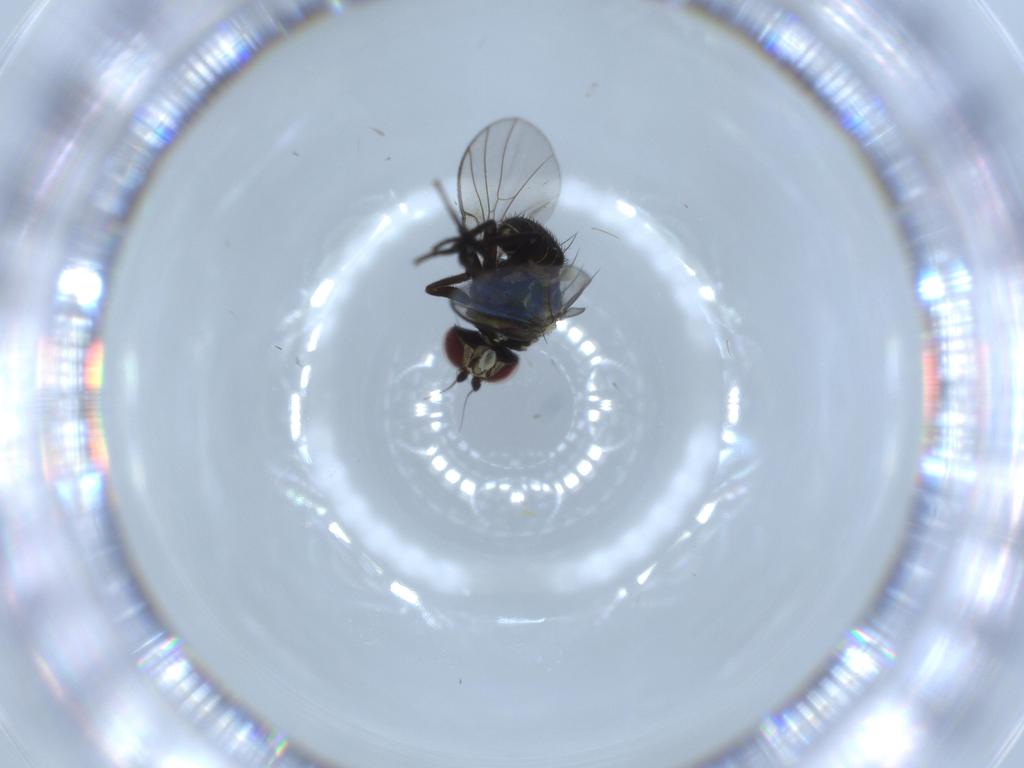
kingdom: Animalia
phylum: Arthropoda
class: Insecta
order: Diptera
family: Agromyzidae
